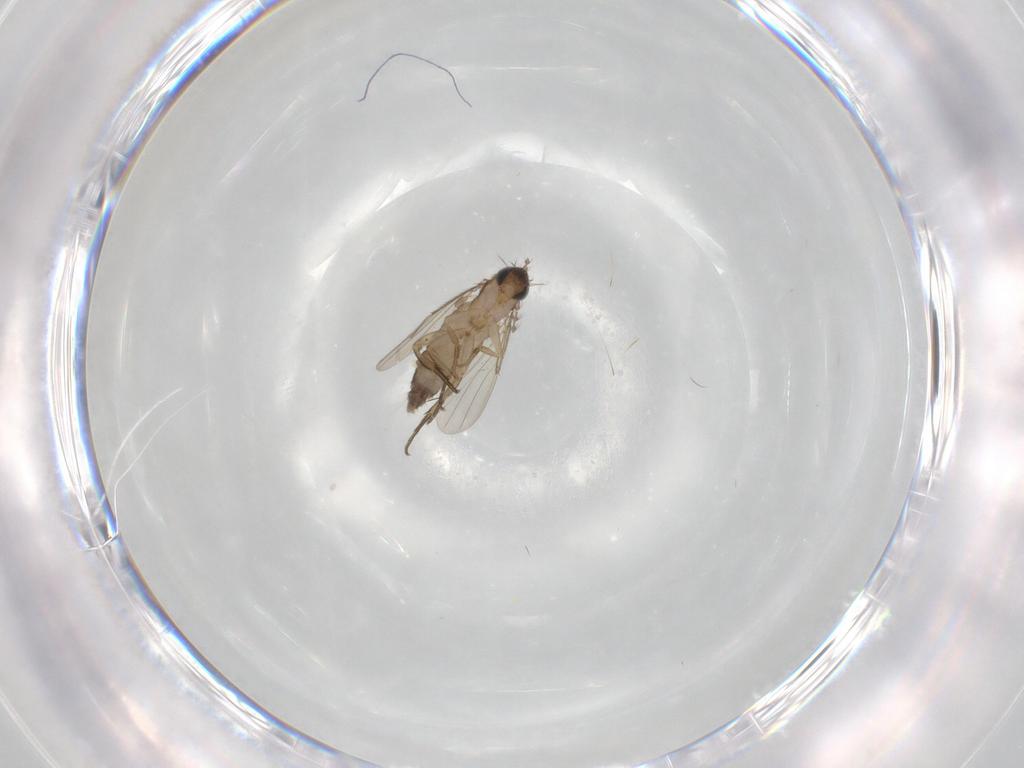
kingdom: Animalia
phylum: Arthropoda
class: Insecta
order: Diptera
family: Phoridae
